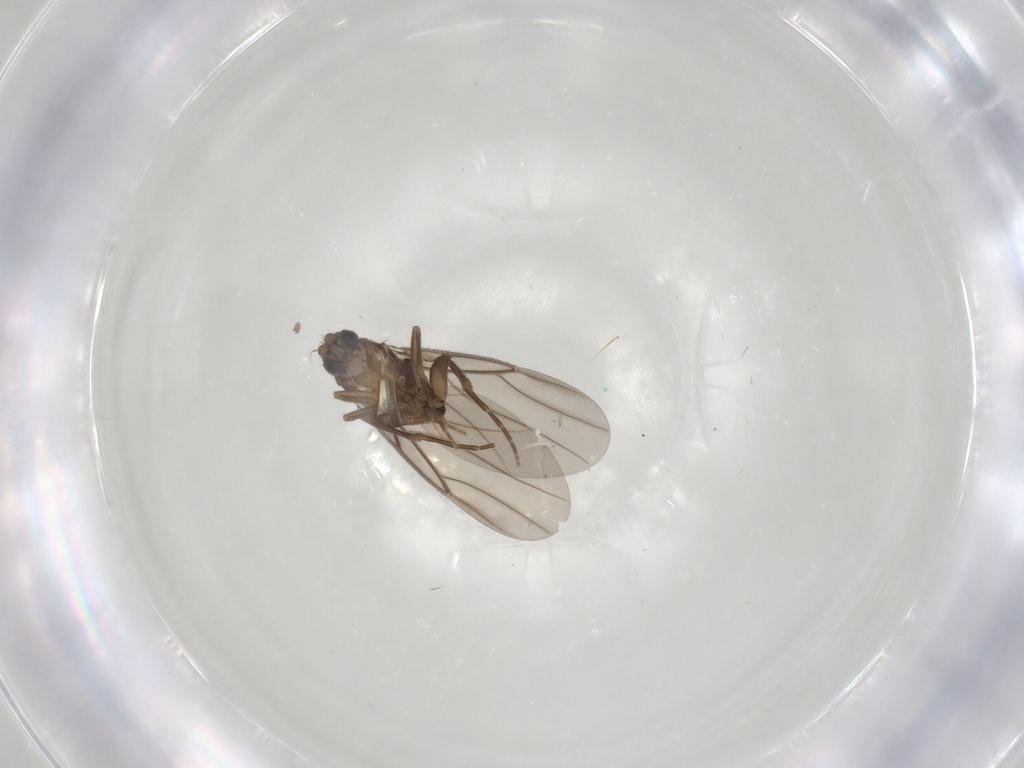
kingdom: Animalia
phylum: Arthropoda
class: Insecta
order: Diptera
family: Phoridae
